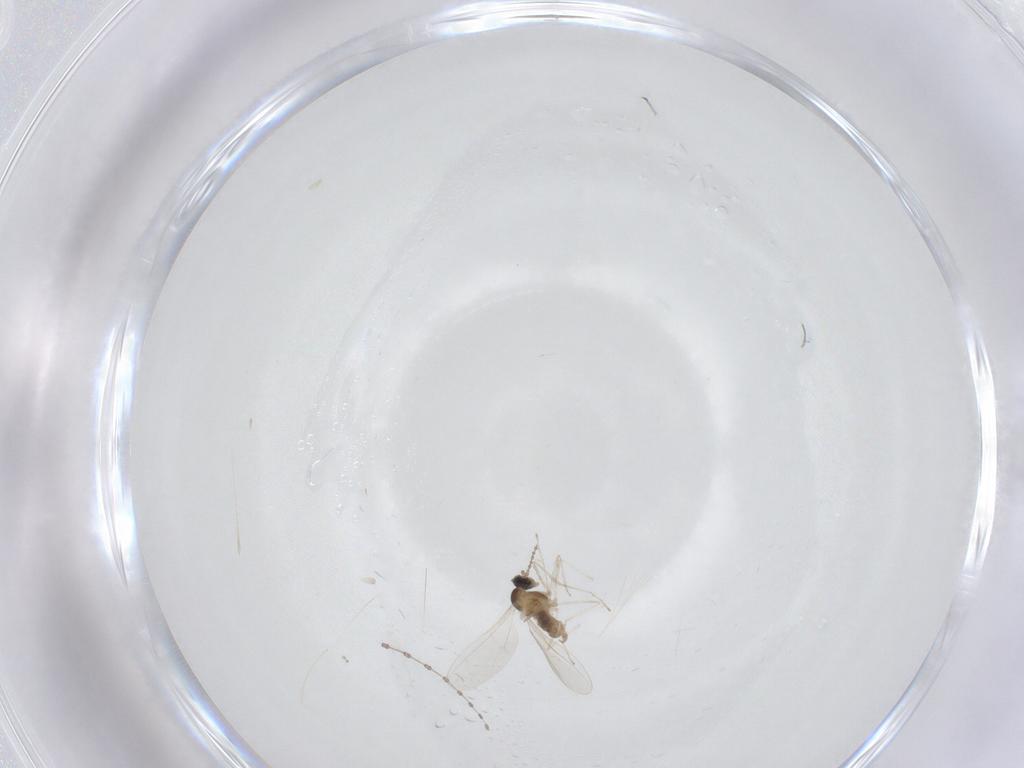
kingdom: Animalia
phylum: Arthropoda
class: Insecta
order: Diptera
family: Cecidomyiidae
